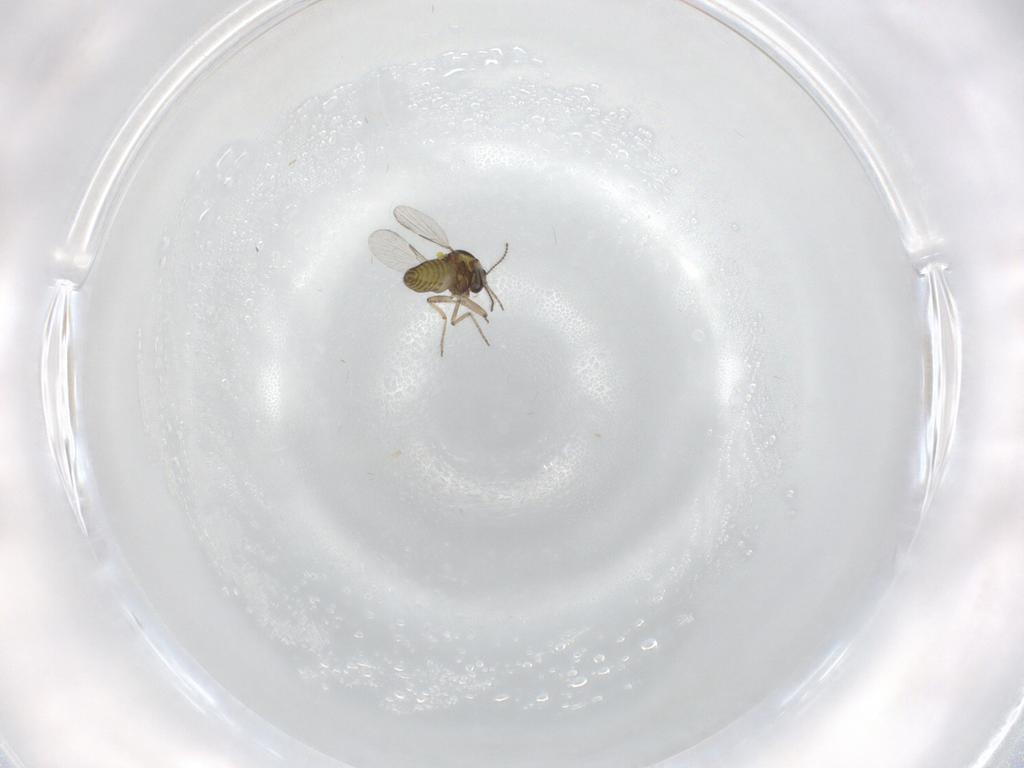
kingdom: Animalia
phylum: Arthropoda
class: Insecta
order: Diptera
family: Ceratopogonidae
